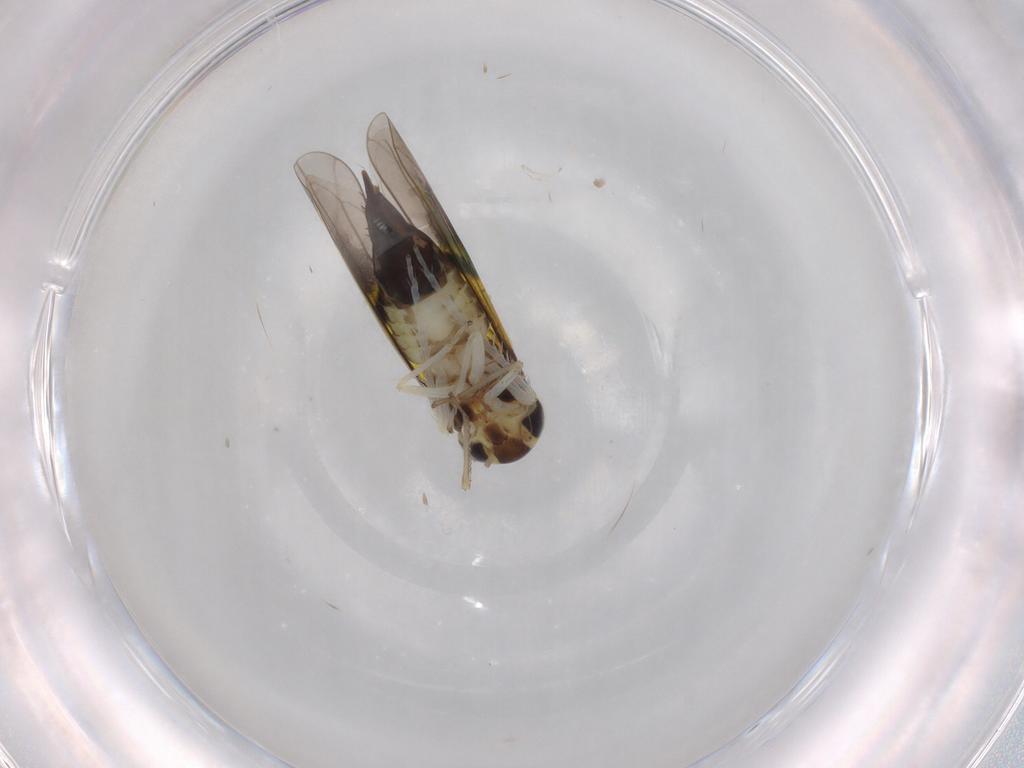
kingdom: Animalia
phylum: Arthropoda
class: Insecta
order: Hemiptera
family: Cicadellidae
